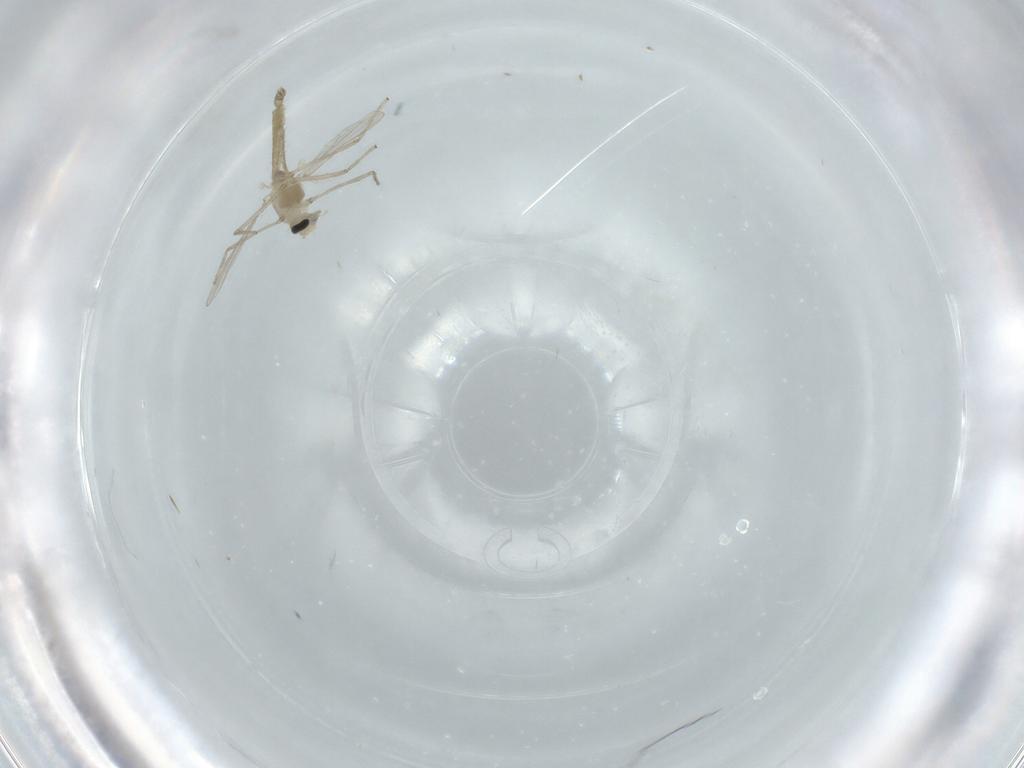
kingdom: Animalia
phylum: Arthropoda
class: Insecta
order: Diptera
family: Chironomidae
